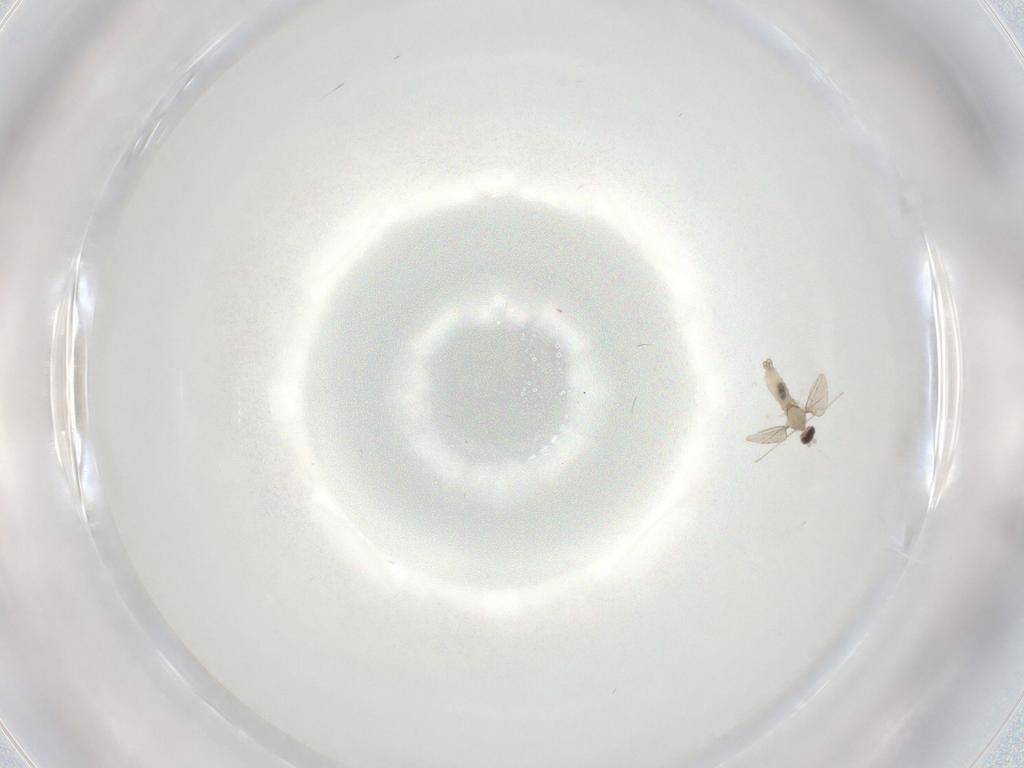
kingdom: Animalia
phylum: Arthropoda
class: Insecta
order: Diptera
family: Cecidomyiidae
